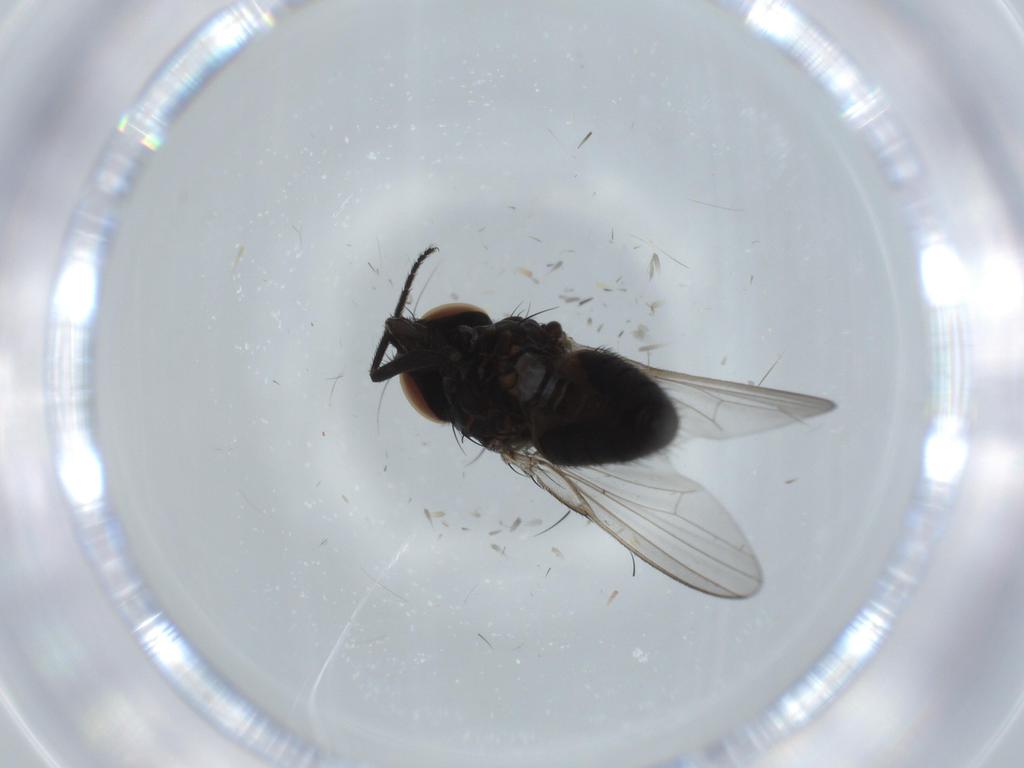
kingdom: Animalia
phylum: Arthropoda
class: Insecta
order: Diptera
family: Milichiidae
